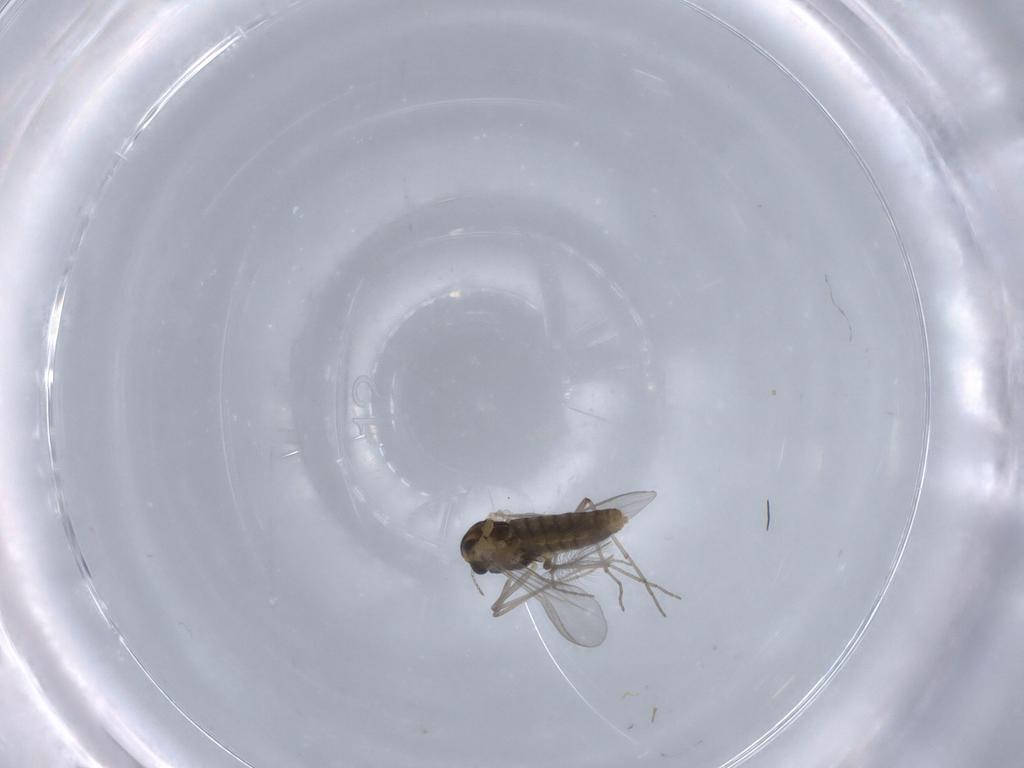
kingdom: Animalia
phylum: Arthropoda
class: Insecta
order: Diptera
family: Chironomidae
